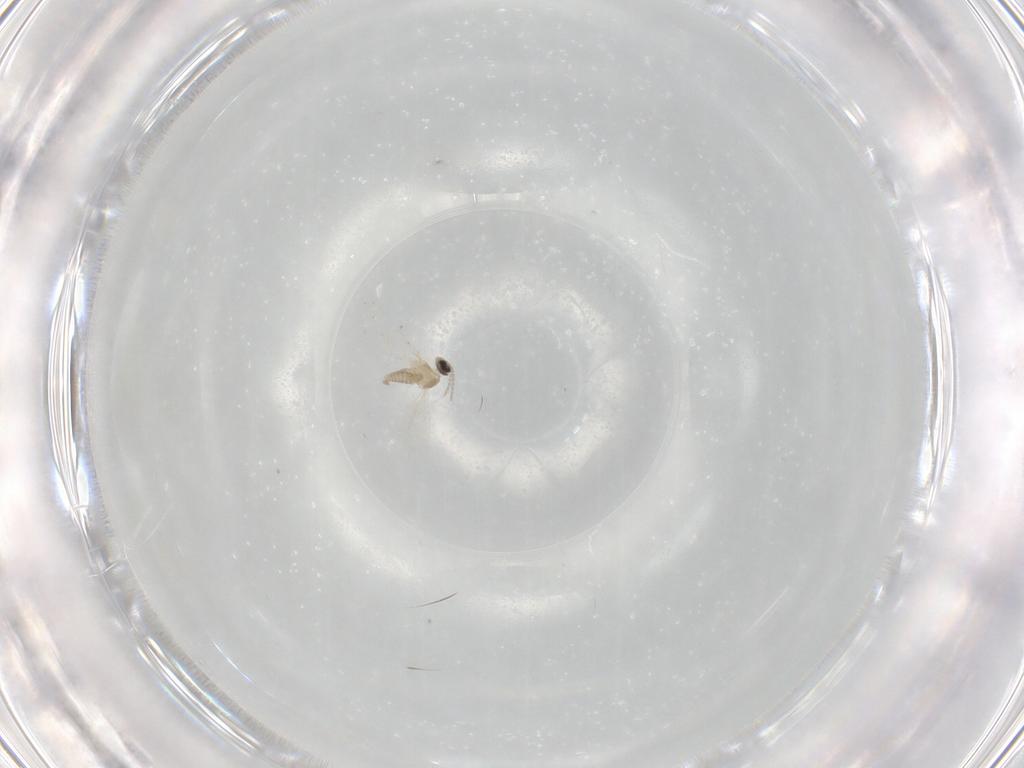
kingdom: Animalia
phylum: Arthropoda
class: Insecta
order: Diptera
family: Cecidomyiidae
